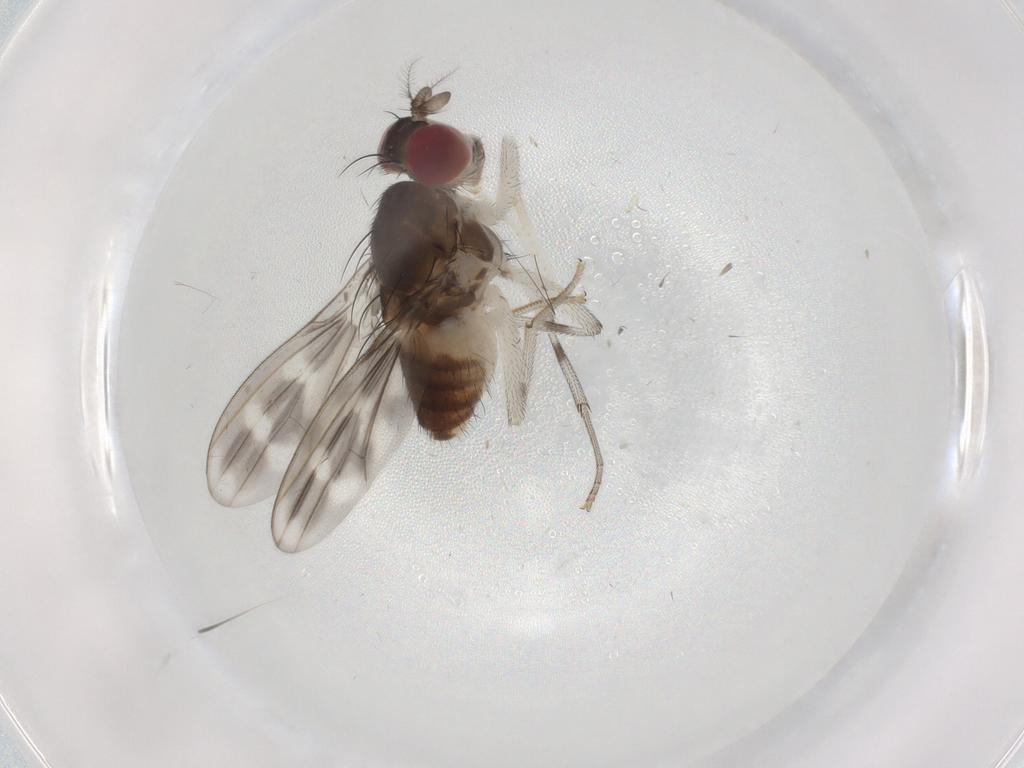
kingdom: Animalia
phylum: Arthropoda
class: Insecta
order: Diptera
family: Lauxaniidae
